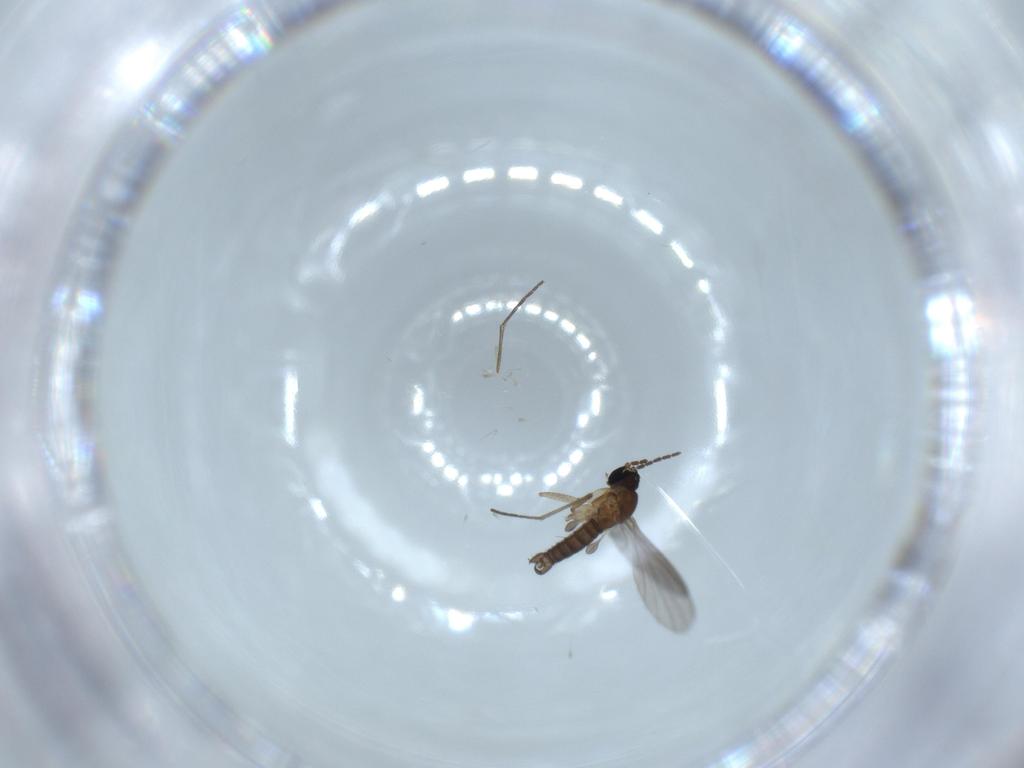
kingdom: Animalia
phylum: Arthropoda
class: Insecta
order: Diptera
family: Sciaridae
